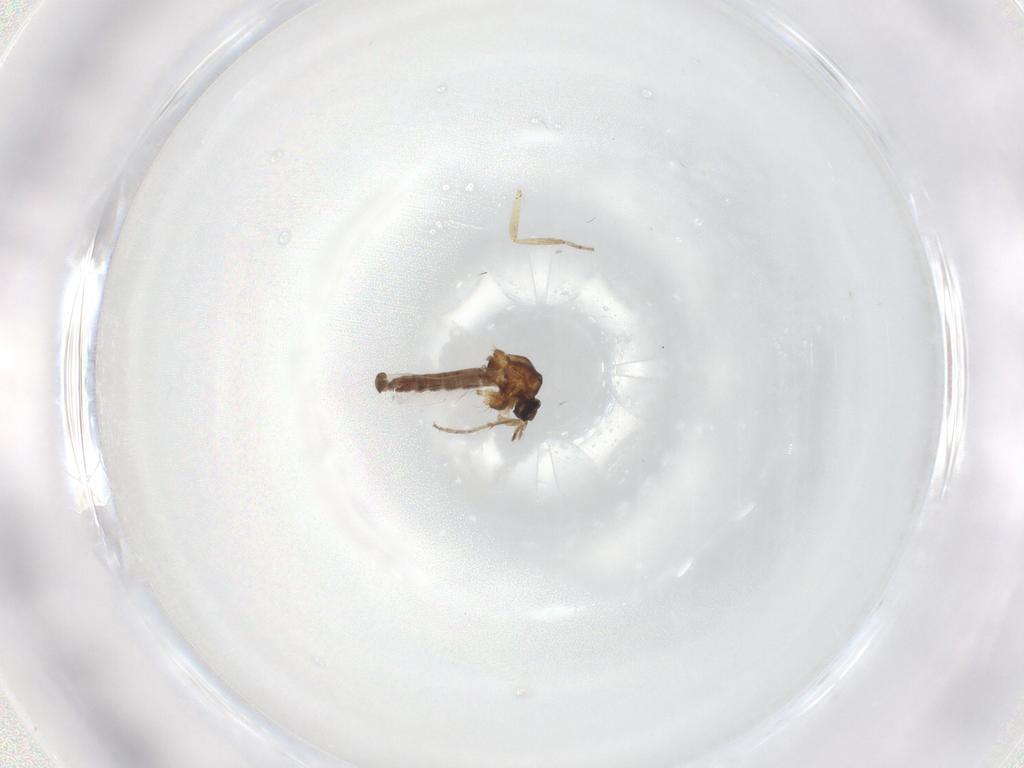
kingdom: Animalia
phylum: Arthropoda
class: Insecta
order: Diptera
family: Ceratopogonidae
